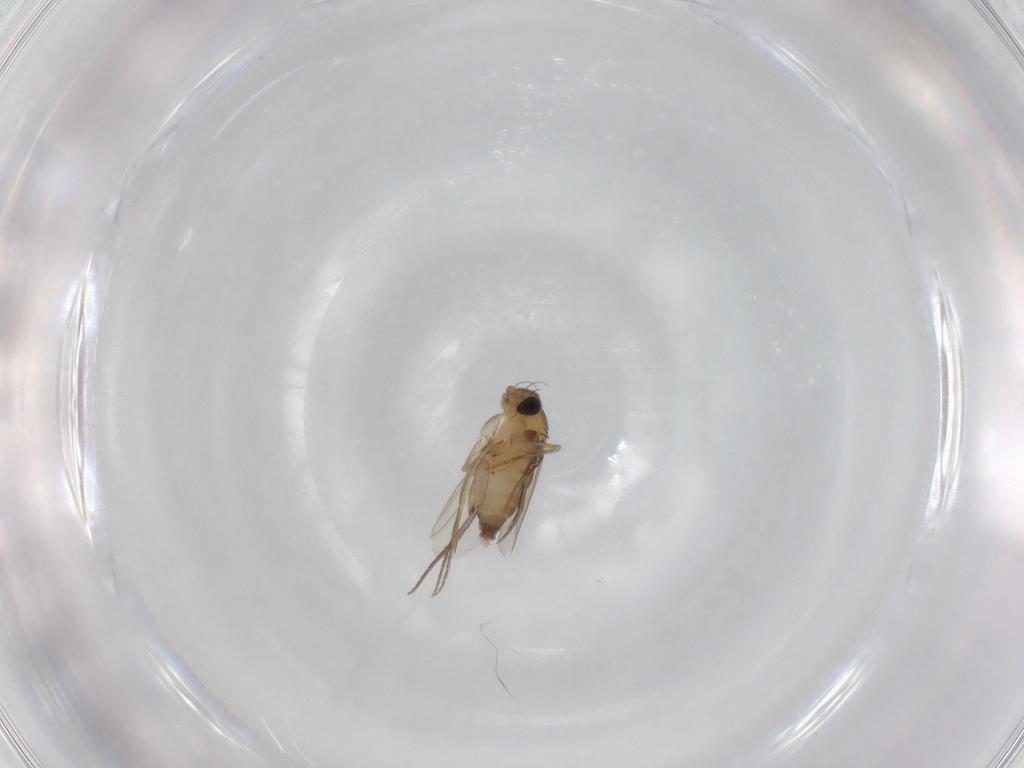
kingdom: Animalia
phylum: Arthropoda
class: Insecta
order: Diptera
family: Phoridae
